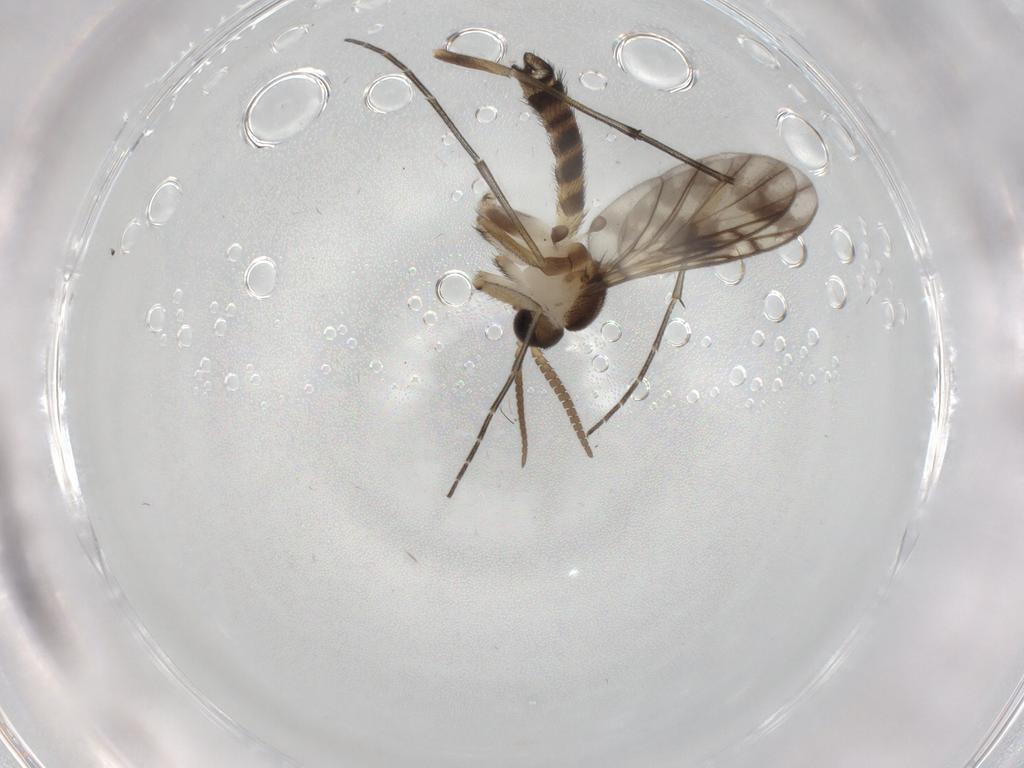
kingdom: Animalia
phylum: Arthropoda
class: Insecta
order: Diptera
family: Keroplatidae
